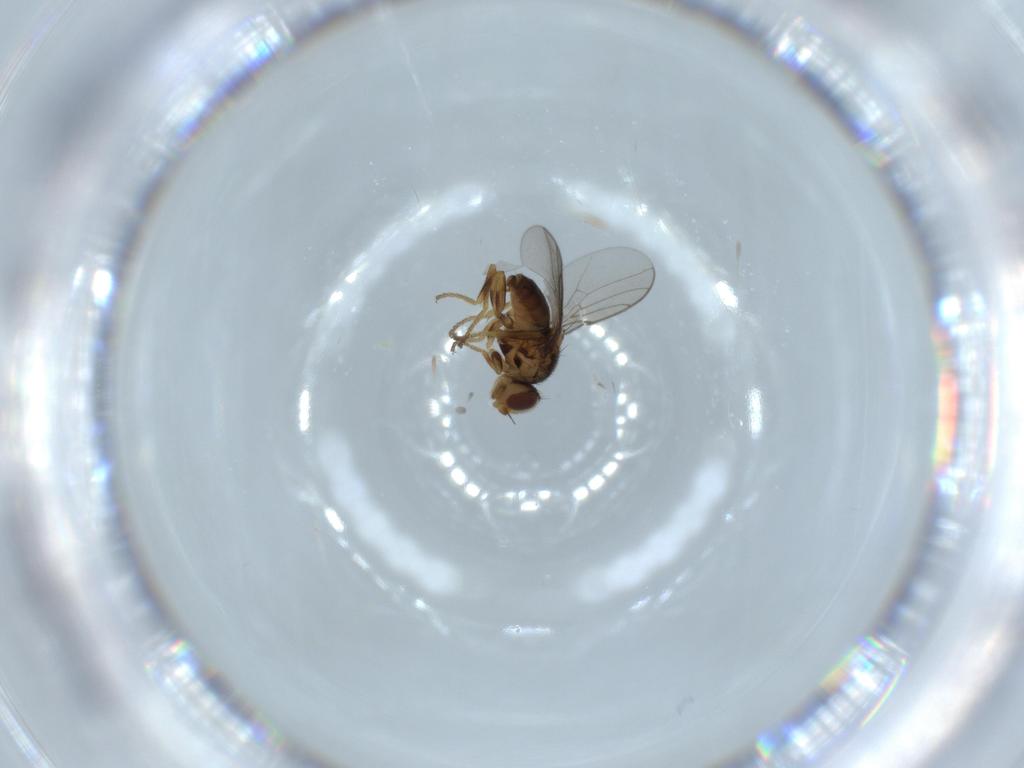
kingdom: Animalia
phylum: Arthropoda
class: Insecta
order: Diptera
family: Chloropidae
